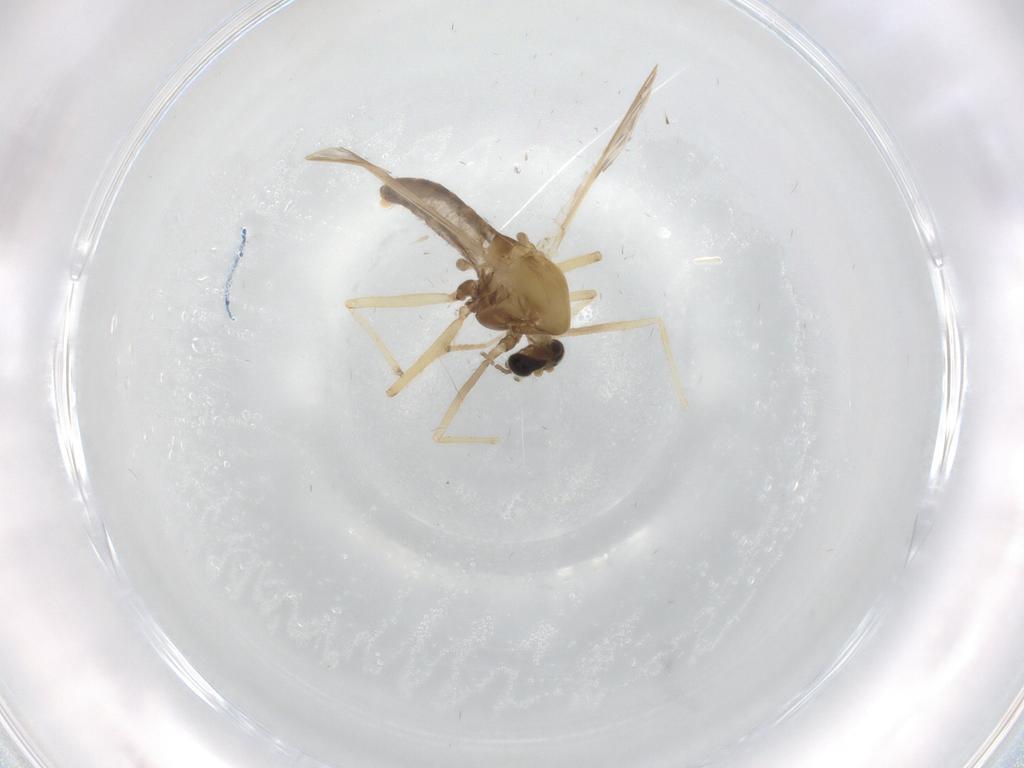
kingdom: Animalia
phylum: Arthropoda
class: Insecta
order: Diptera
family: Chironomidae
